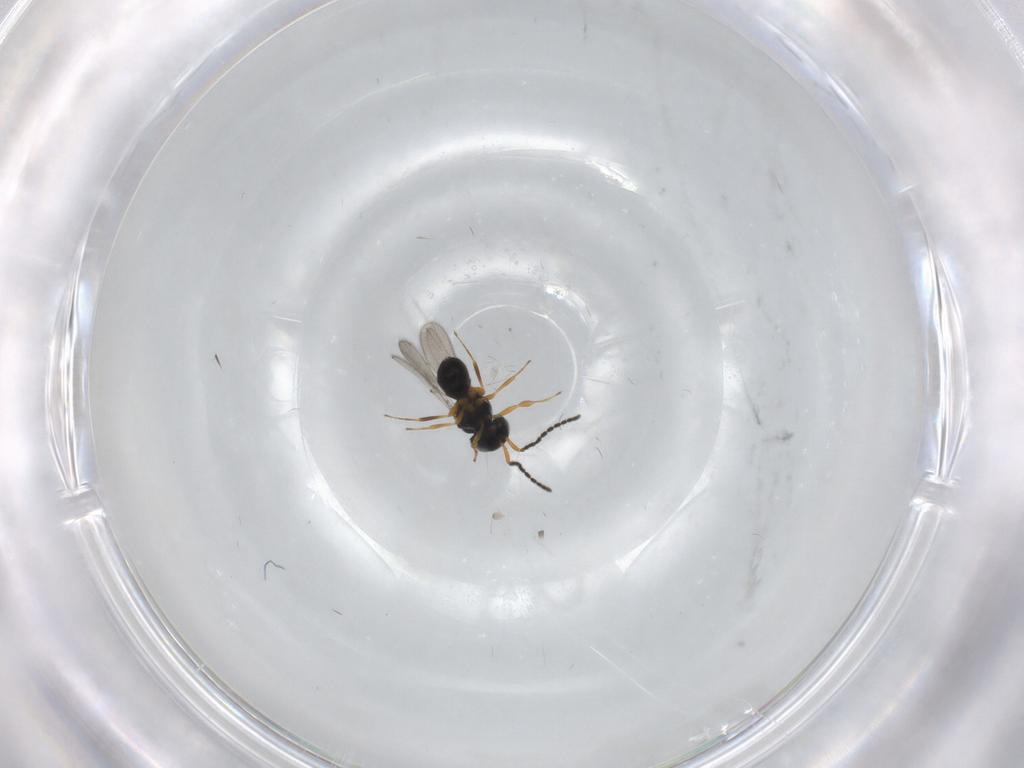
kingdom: Animalia
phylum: Arthropoda
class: Insecta
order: Hymenoptera
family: Scelionidae
